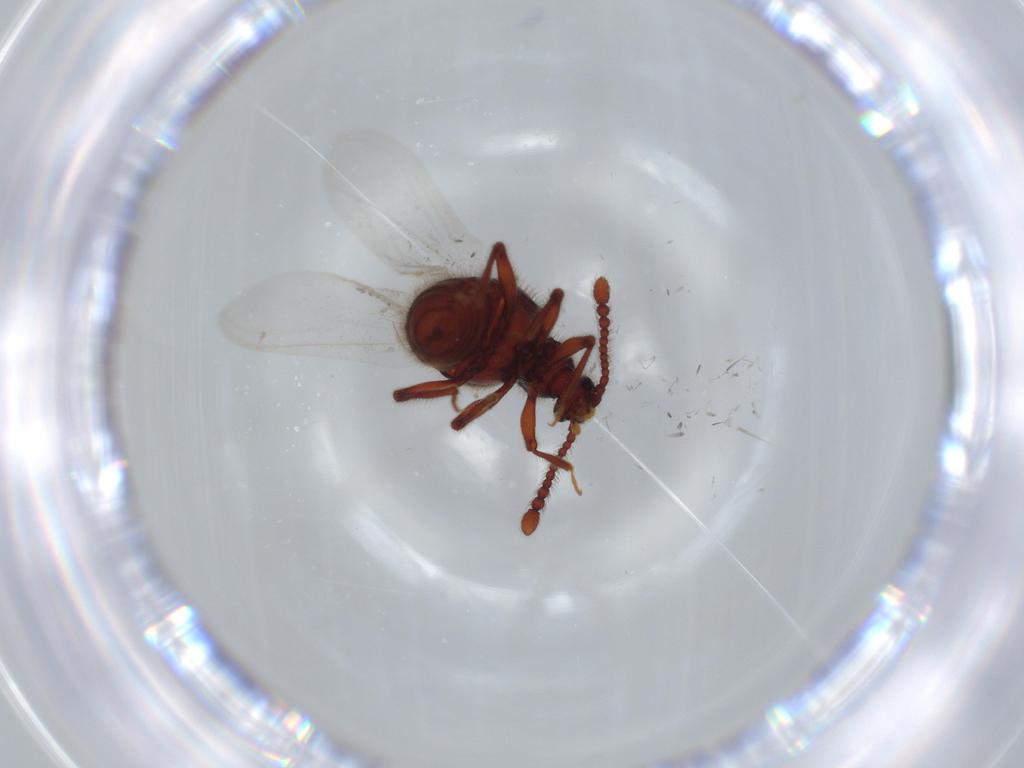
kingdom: Animalia
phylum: Arthropoda
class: Insecta
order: Coleoptera
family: Staphylinidae
